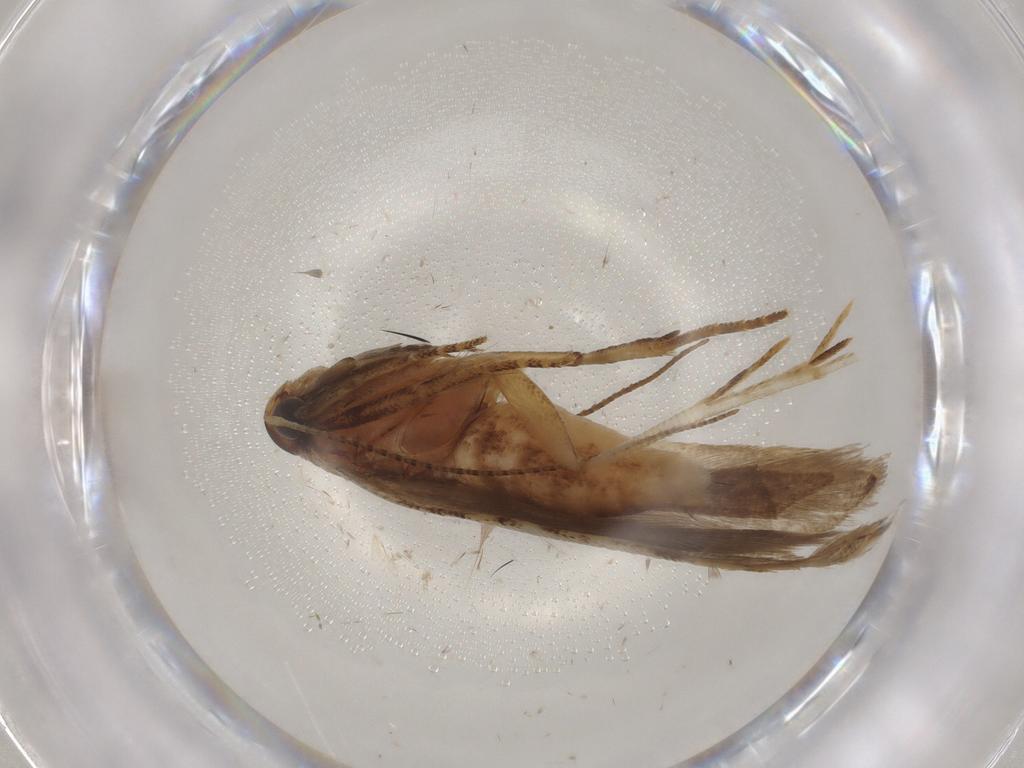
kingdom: Animalia
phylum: Arthropoda
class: Insecta
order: Lepidoptera
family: Gelechiidae
